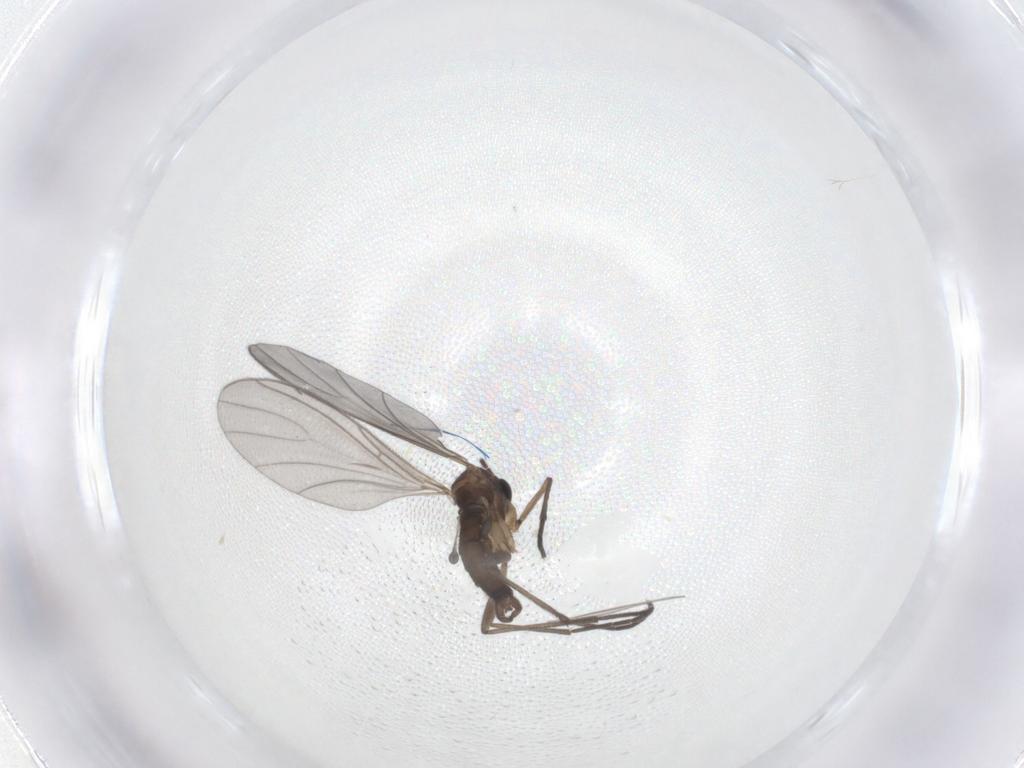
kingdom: Animalia
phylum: Arthropoda
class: Insecta
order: Diptera
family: Sciaridae
